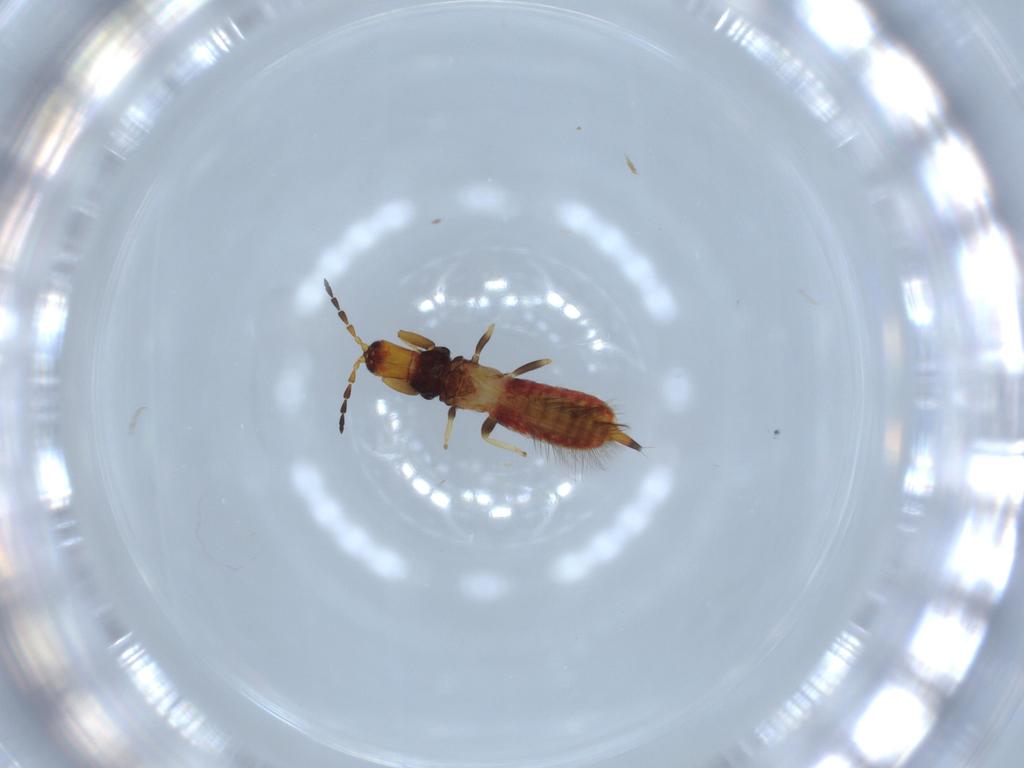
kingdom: Animalia
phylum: Arthropoda
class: Insecta
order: Thysanoptera
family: Phlaeothripidae
